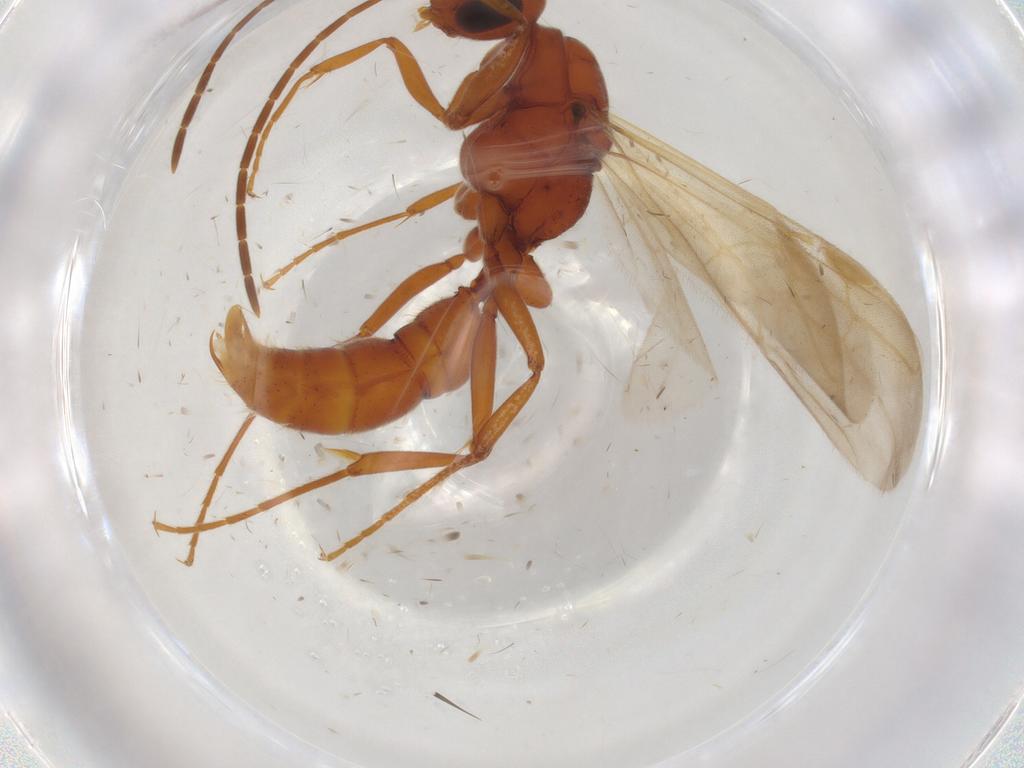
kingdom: Animalia
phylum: Arthropoda
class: Insecta
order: Hymenoptera
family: Formicidae
